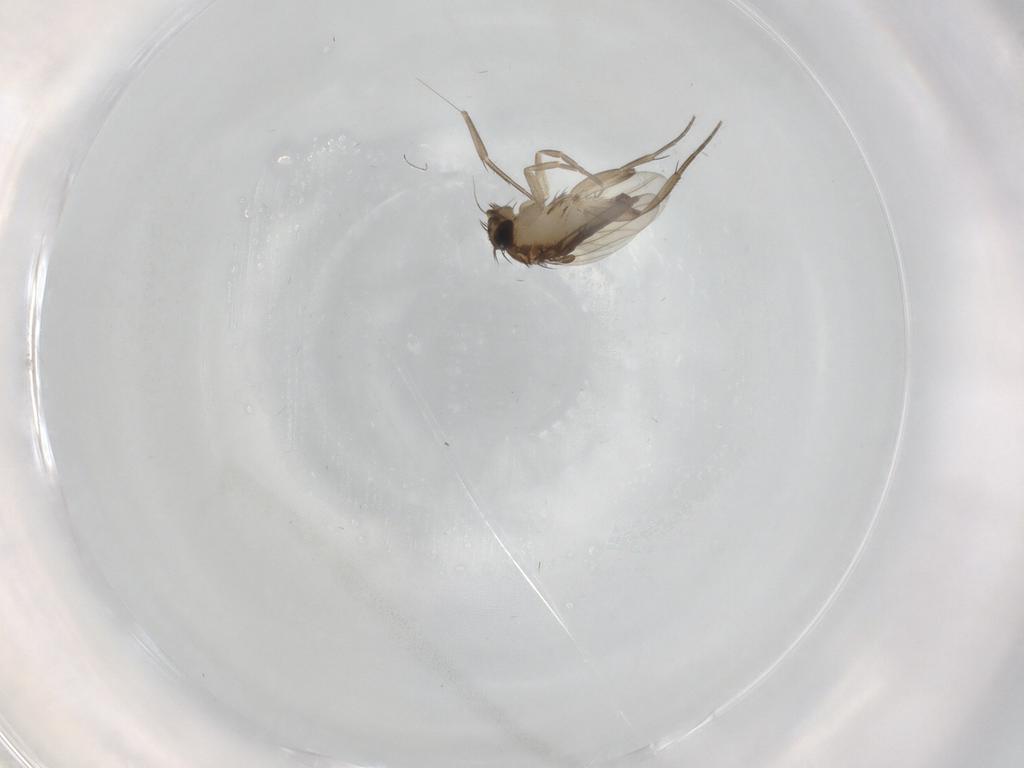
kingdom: Animalia
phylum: Arthropoda
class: Insecta
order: Diptera
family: Phoridae
